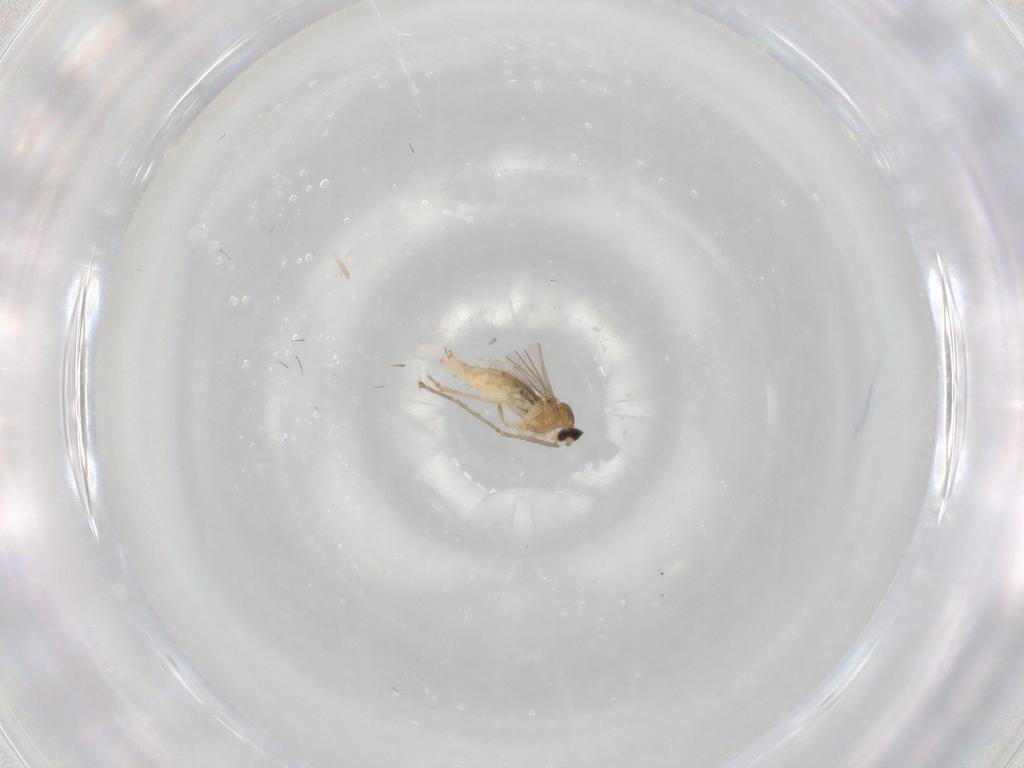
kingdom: Animalia
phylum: Arthropoda
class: Insecta
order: Diptera
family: Cecidomyiidae
